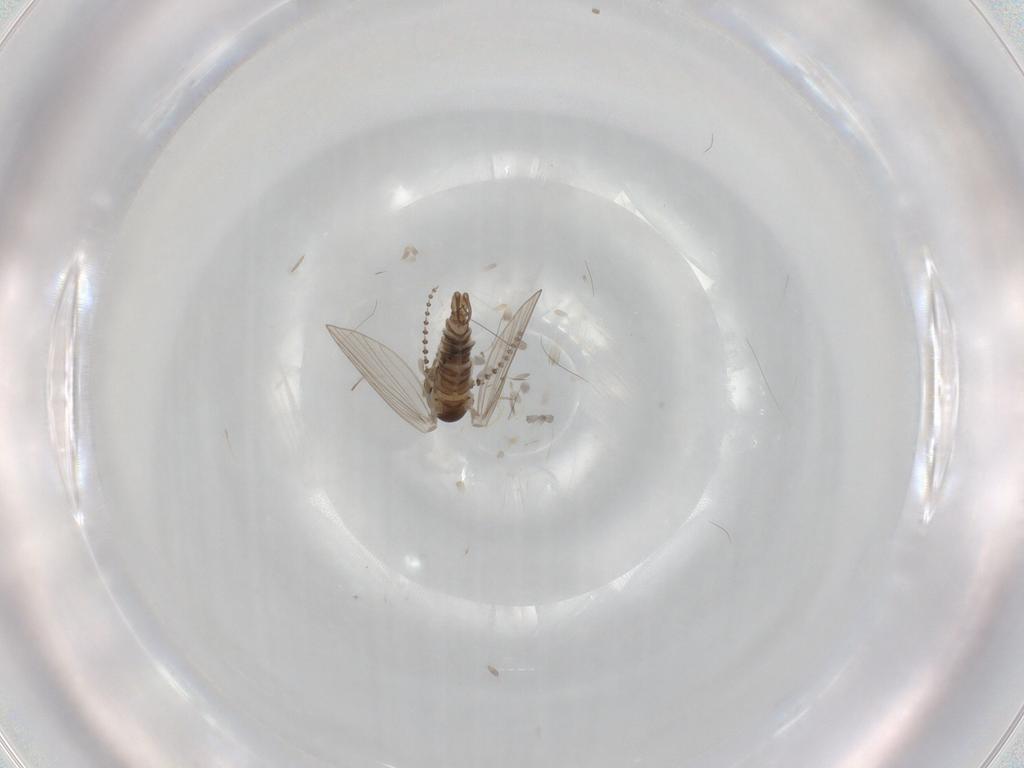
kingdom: Animalia
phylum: Arthropoda
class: Insecta
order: Diptera
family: Psychodidae
